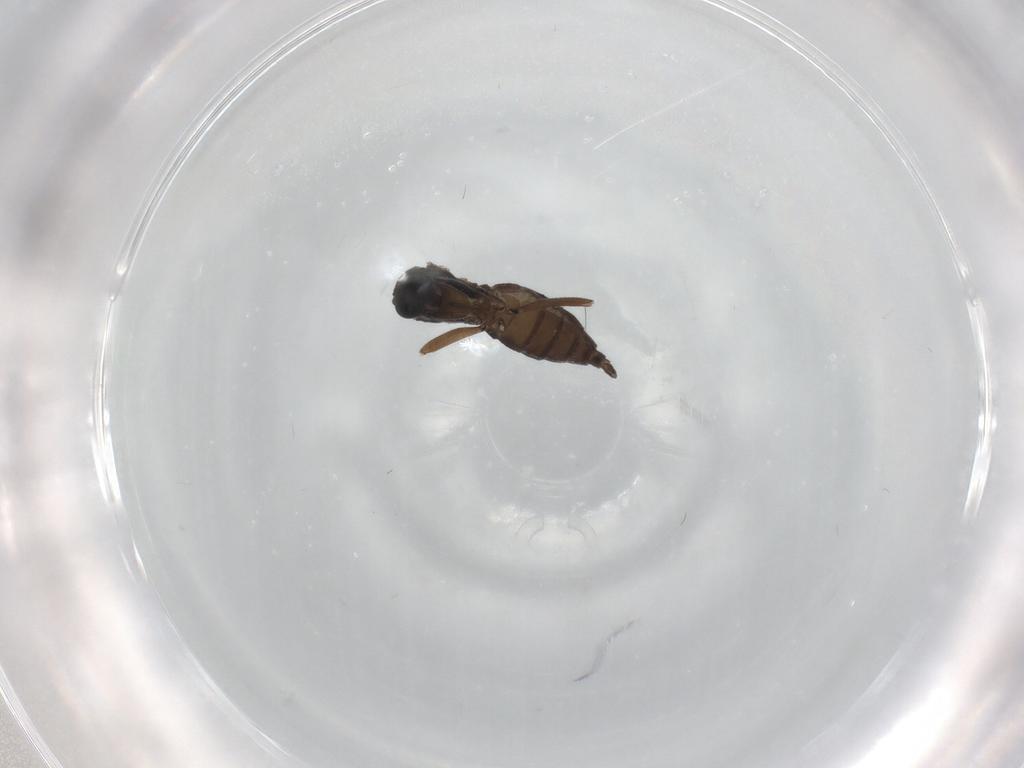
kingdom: Animalia
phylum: Arthropoda
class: Insecta
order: Diptera
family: Sciaridae
